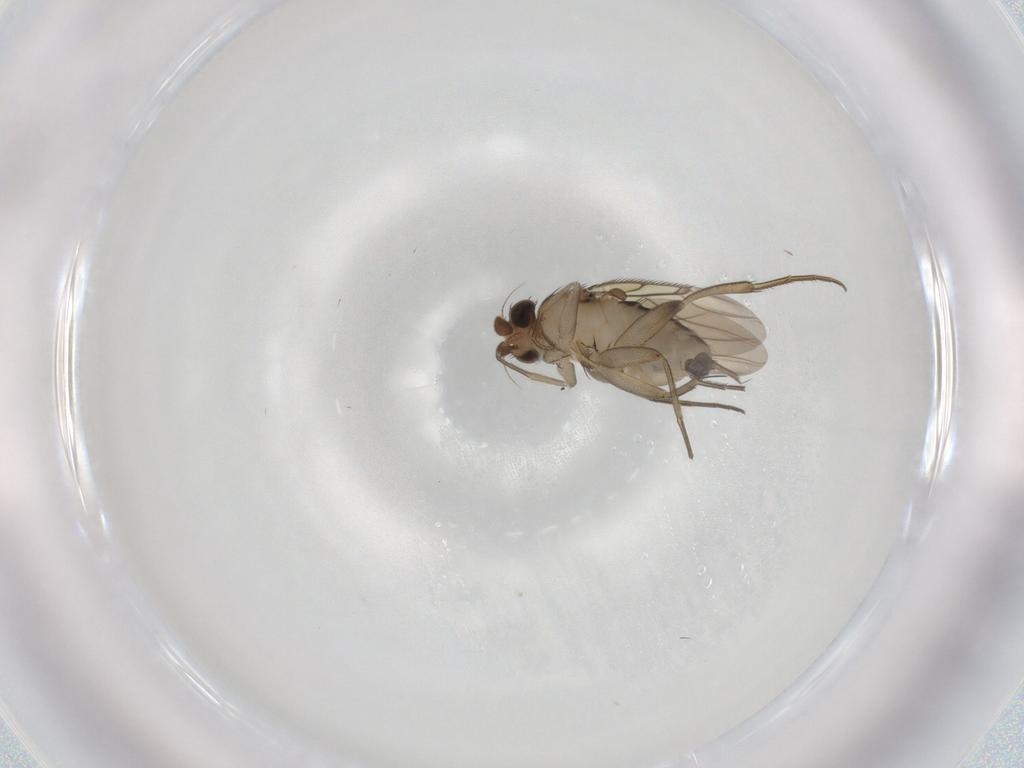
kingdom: Animalia
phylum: Arthropoda
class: Insecta
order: Diptera
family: Phoridae
